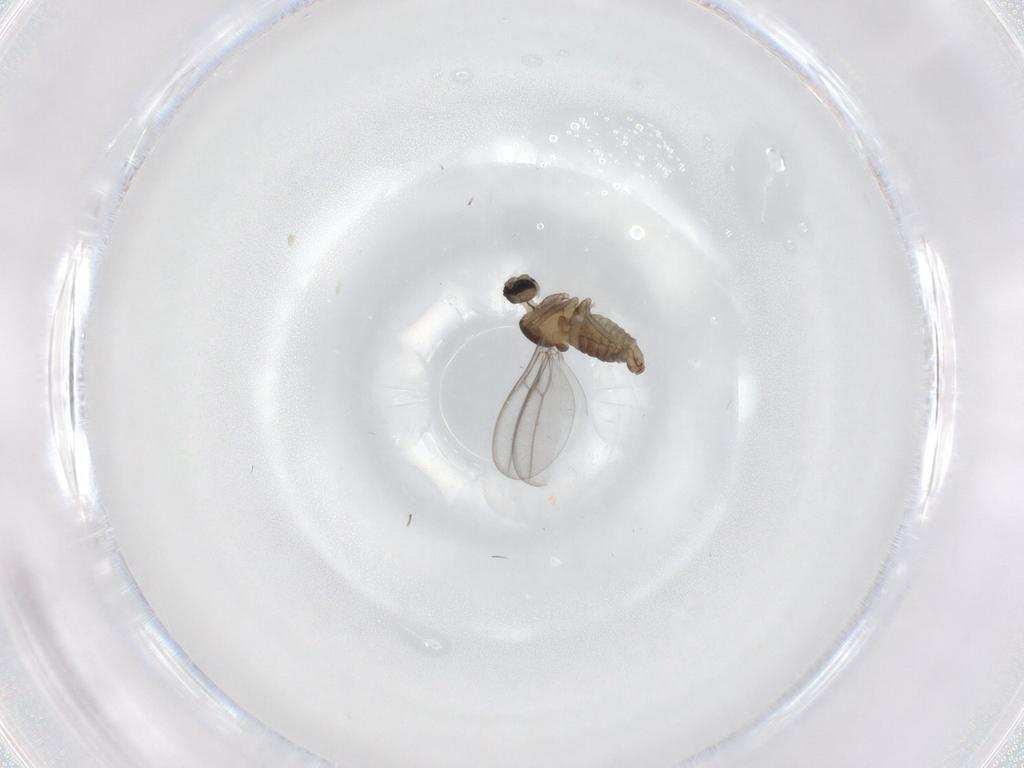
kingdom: Animalia
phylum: Arthropoda
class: Insecta
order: Diptera
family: Cecidomyiidae
